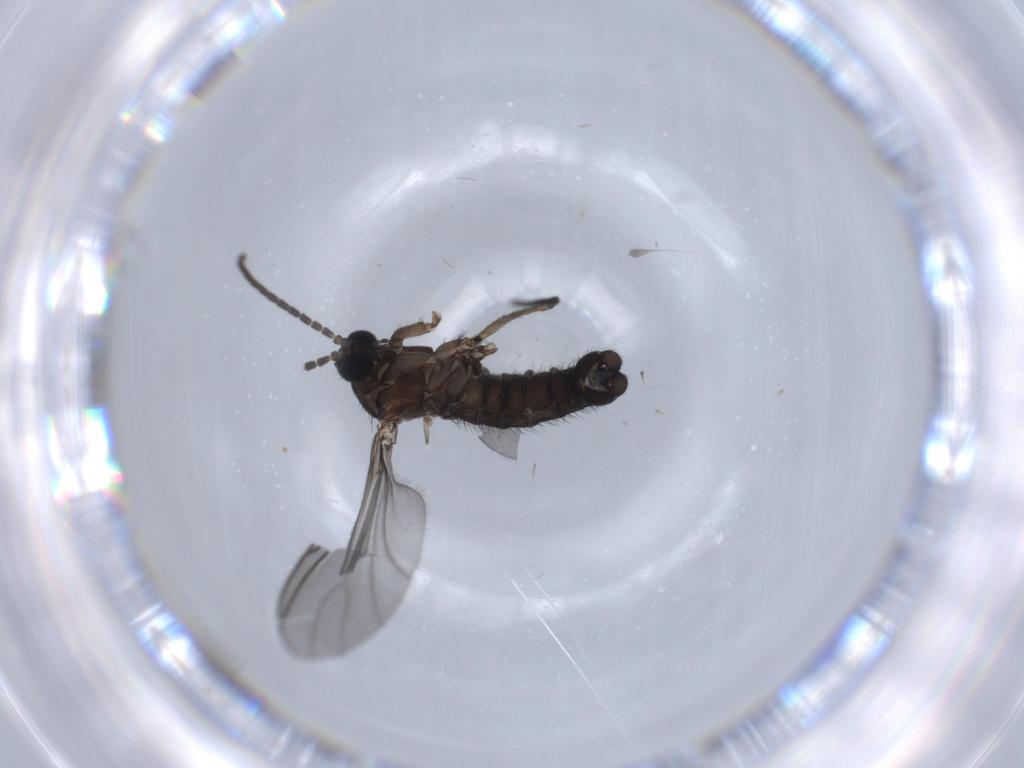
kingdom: Animalia
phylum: Arthropoda
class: Insecta
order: Diptera
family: Sciaridae
